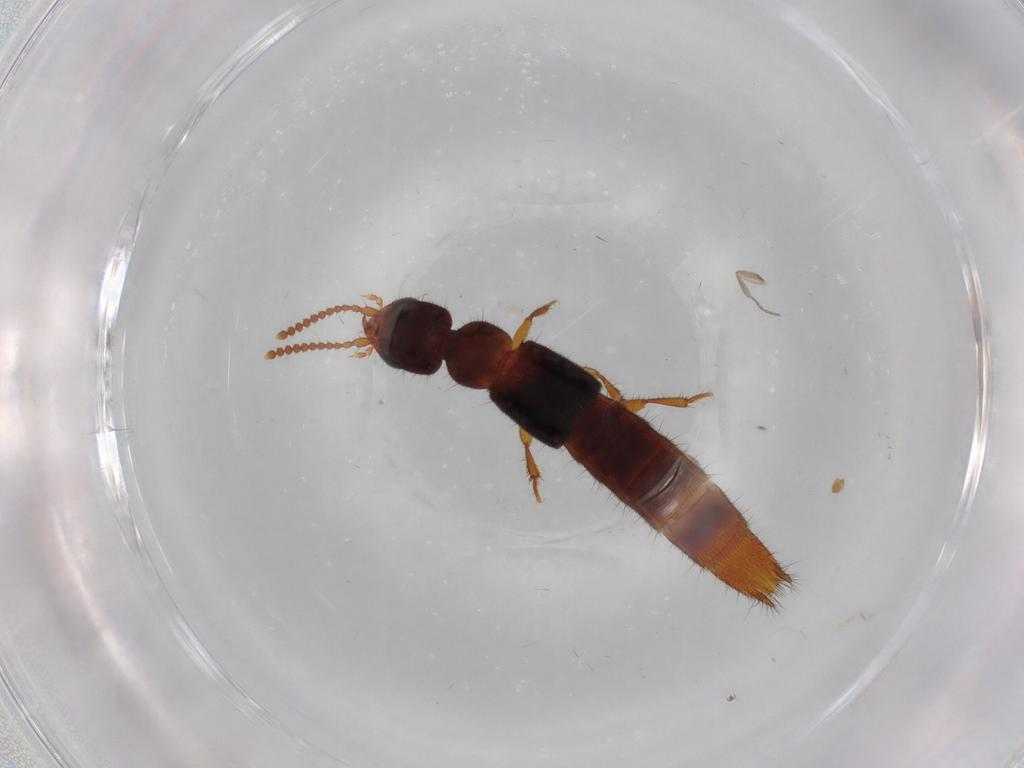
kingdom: Animalia
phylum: Arthropoda
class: Insecta
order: Coleoptera
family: Staphylinidae
